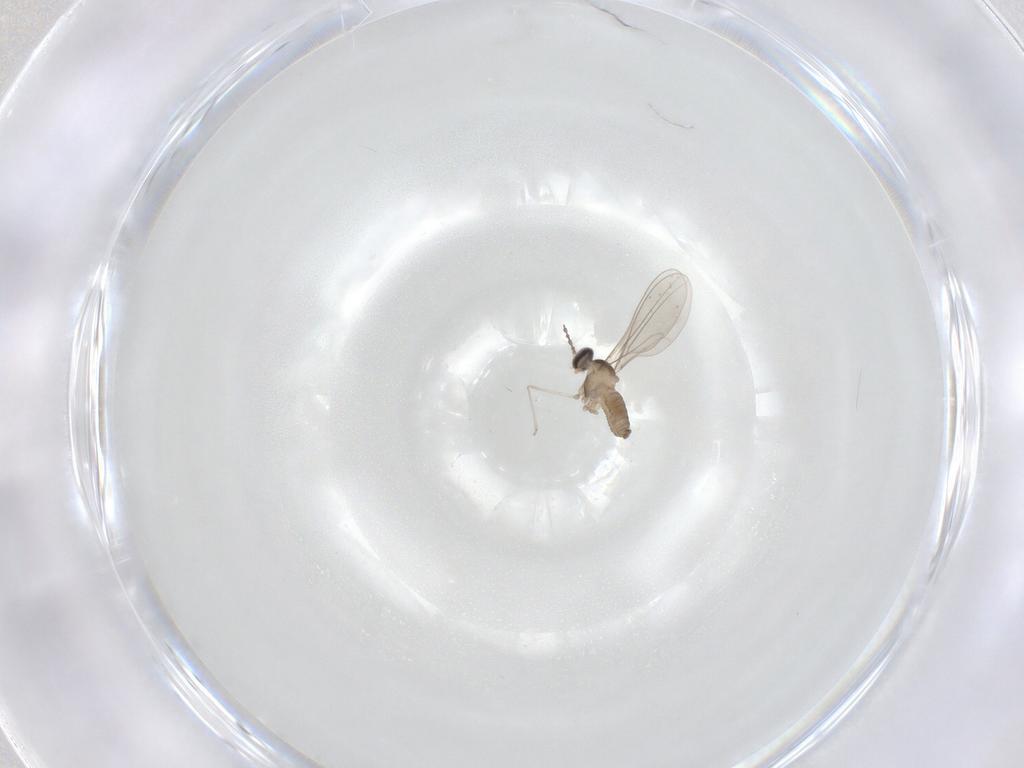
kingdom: Animalia
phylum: Arthropoda
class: Insecta
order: Diptera
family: Cecidomyiidae
